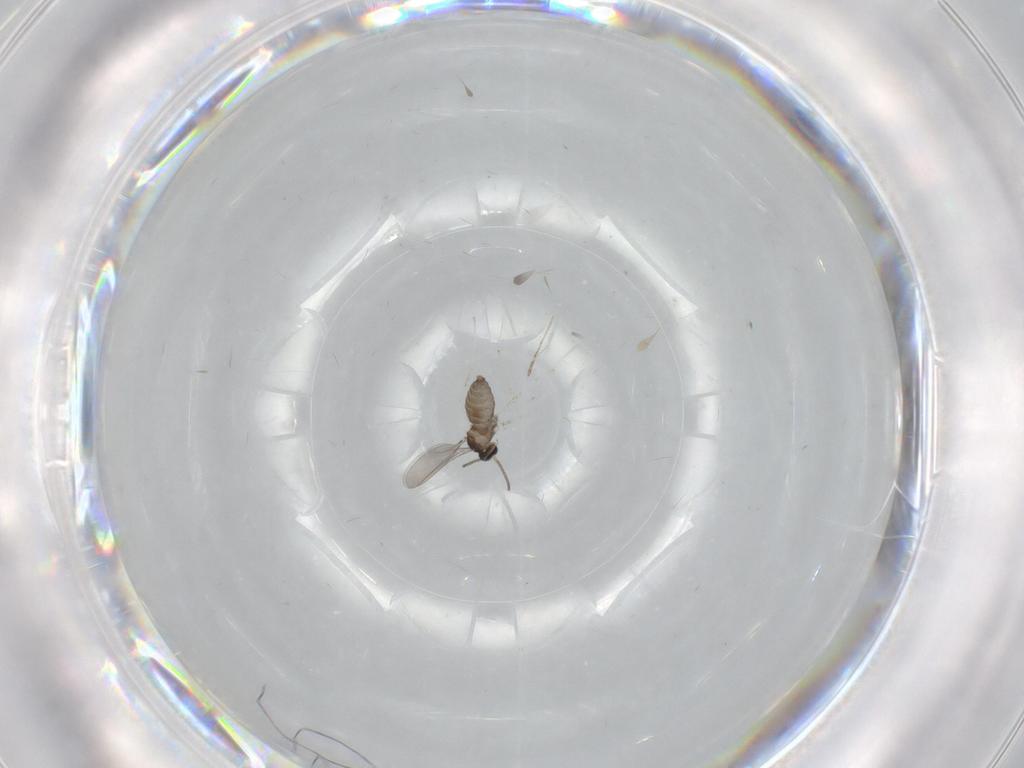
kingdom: Animalia
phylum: Arthropoda
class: Insecta
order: Diptera
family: Cecidomyiidae
